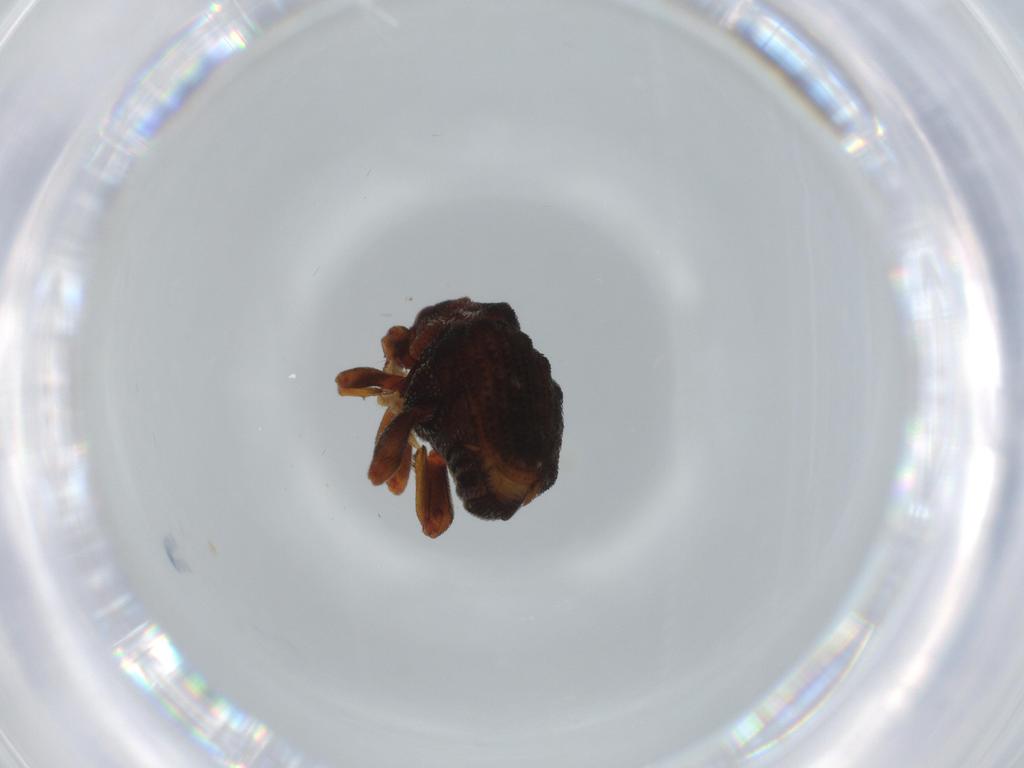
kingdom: Animalia
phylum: Arthropoda
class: Insecta
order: Coleoptera
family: Curculionidae
